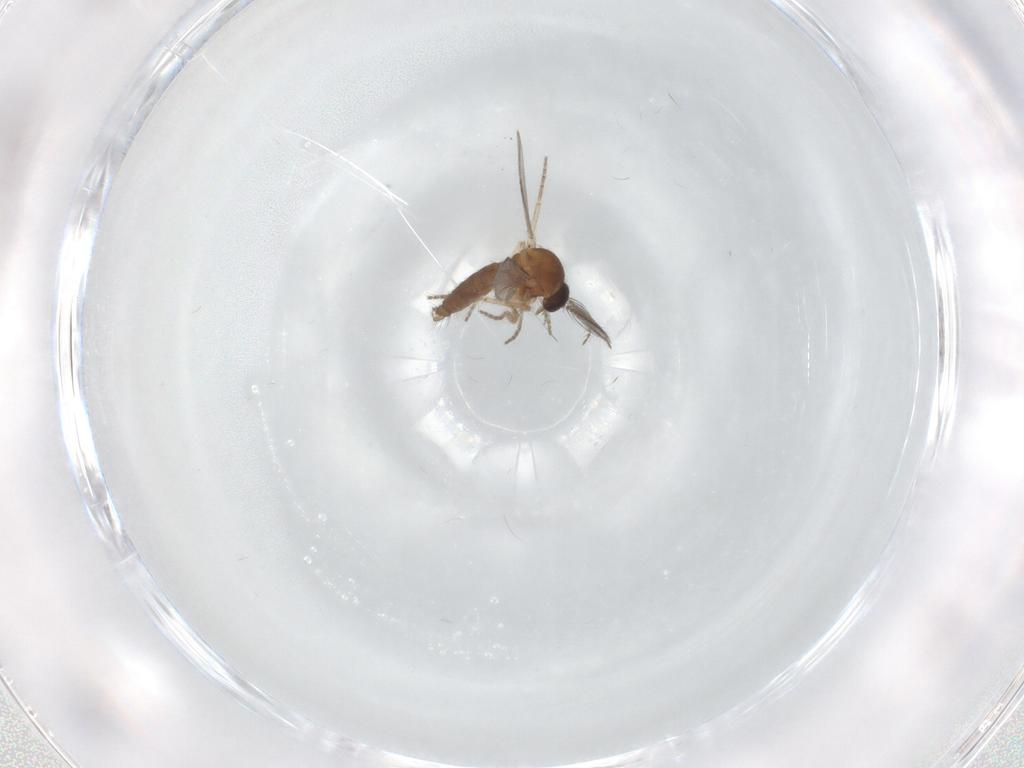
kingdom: Animalia
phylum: Arthropoda
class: Insecta
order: Diptera
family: Ceratopogonidae
